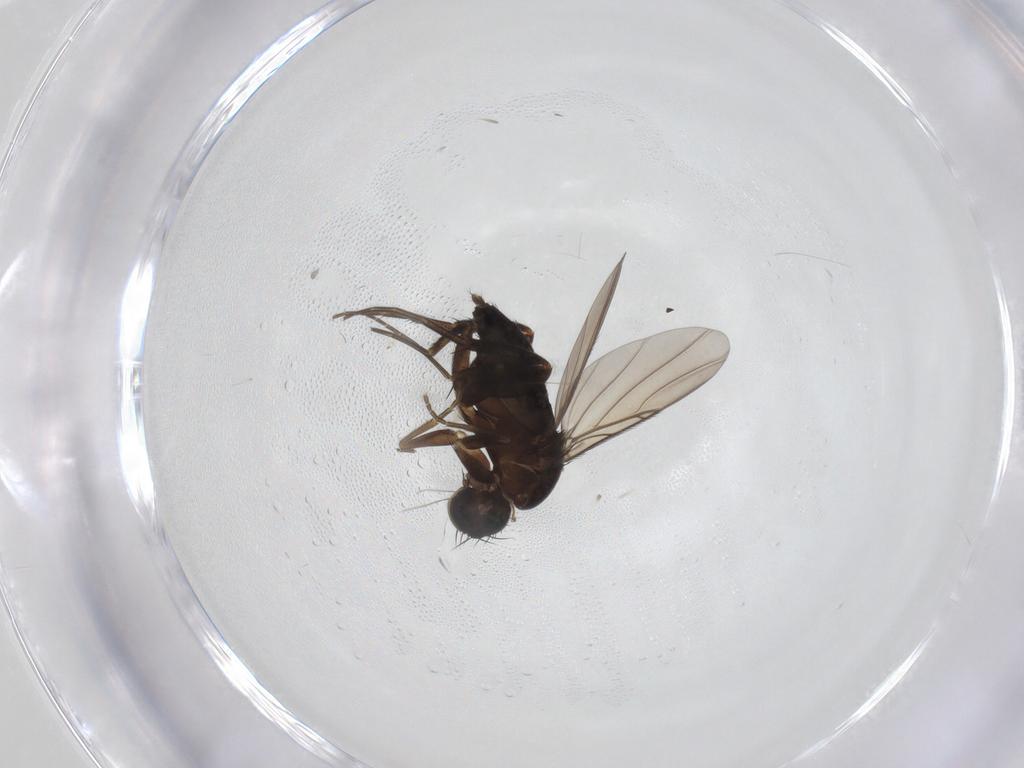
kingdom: Animalia
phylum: Arthropoda
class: Insecta
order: Diptera
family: Phoridae
